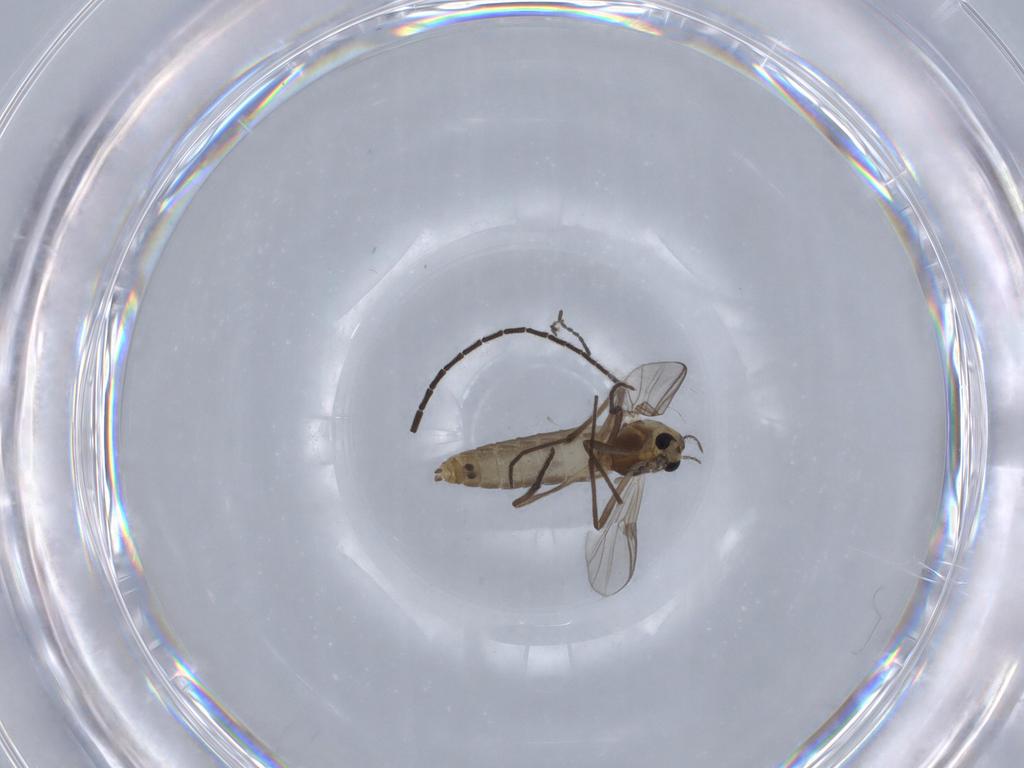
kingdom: Animalia
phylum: Arthropoda
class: Insecta
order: Diptera
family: Chironomidae
